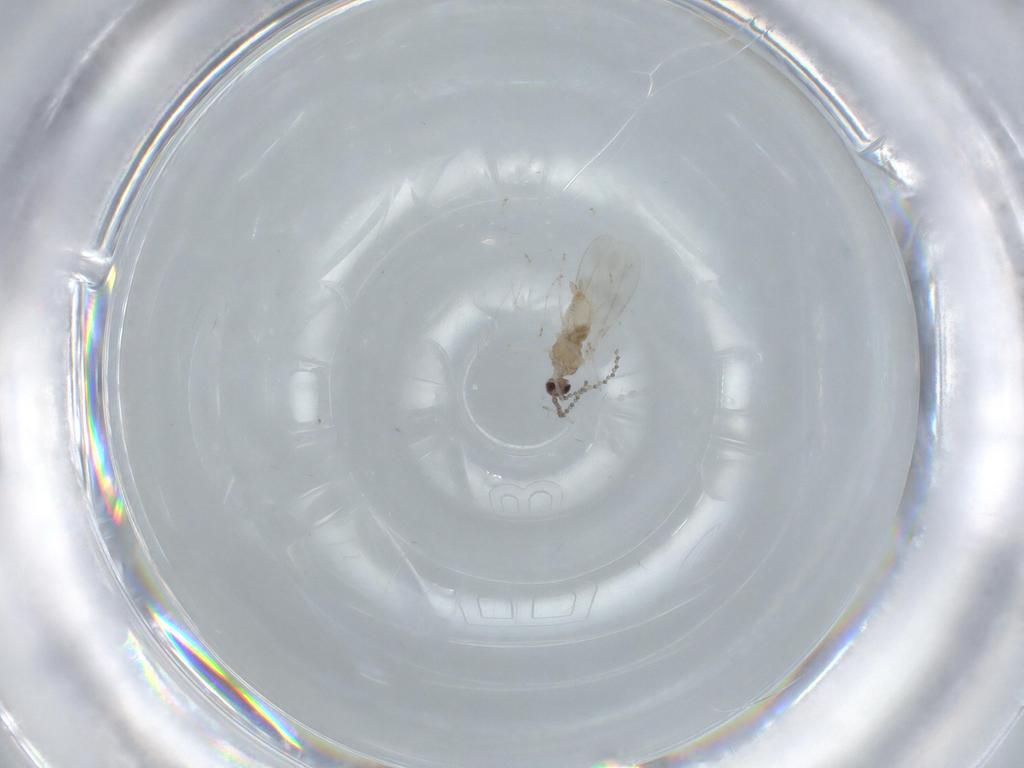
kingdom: Animalia
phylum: Arthropoda
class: Insecta
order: Diptera
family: Cecidomyiidae
